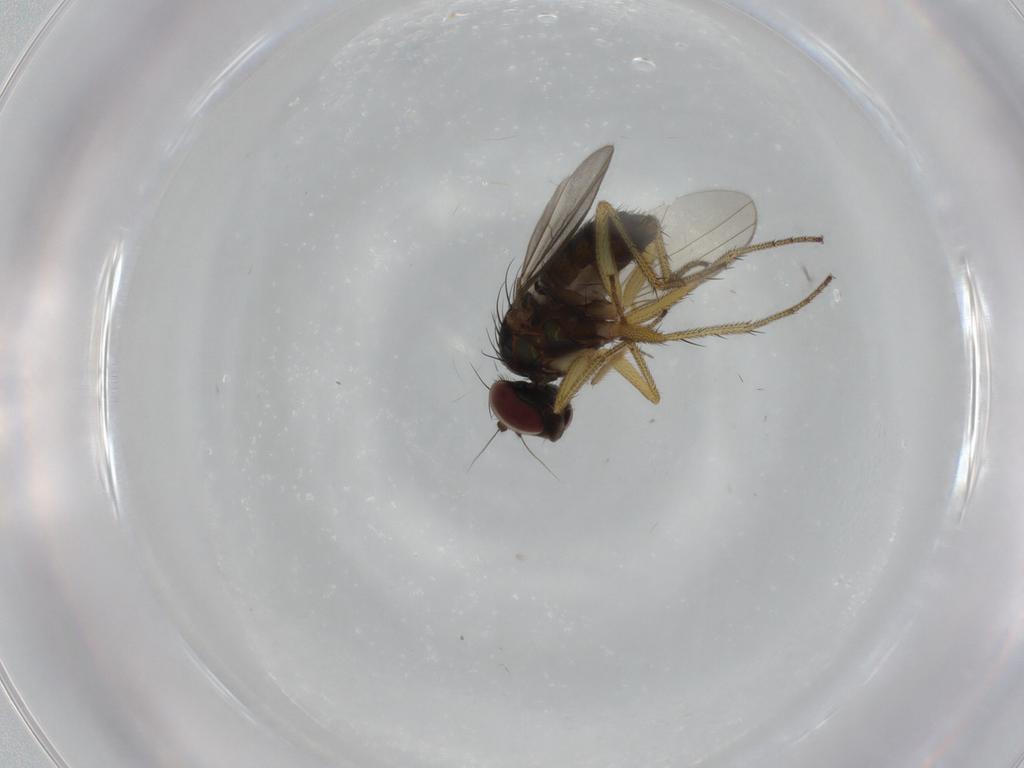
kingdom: Animalia
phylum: Arthropoda
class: Insecta
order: Diptera
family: Dolichopodidae
